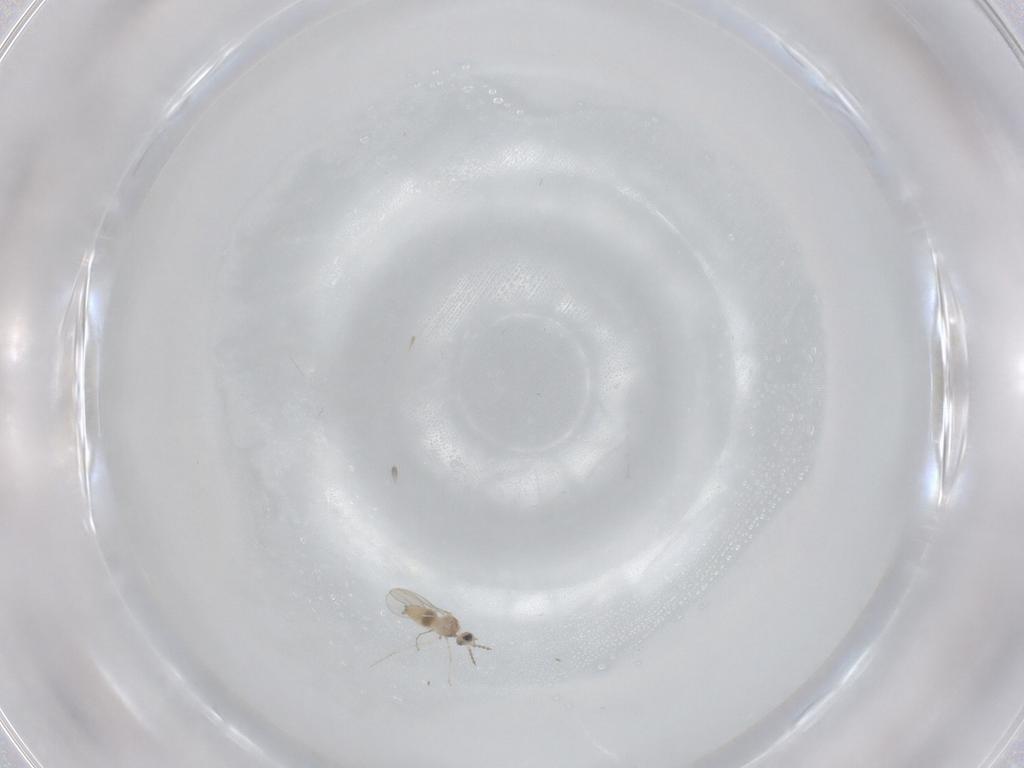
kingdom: Animalia
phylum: Arthropoda
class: Insecta
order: Diptera
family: Cecidomyiidae
